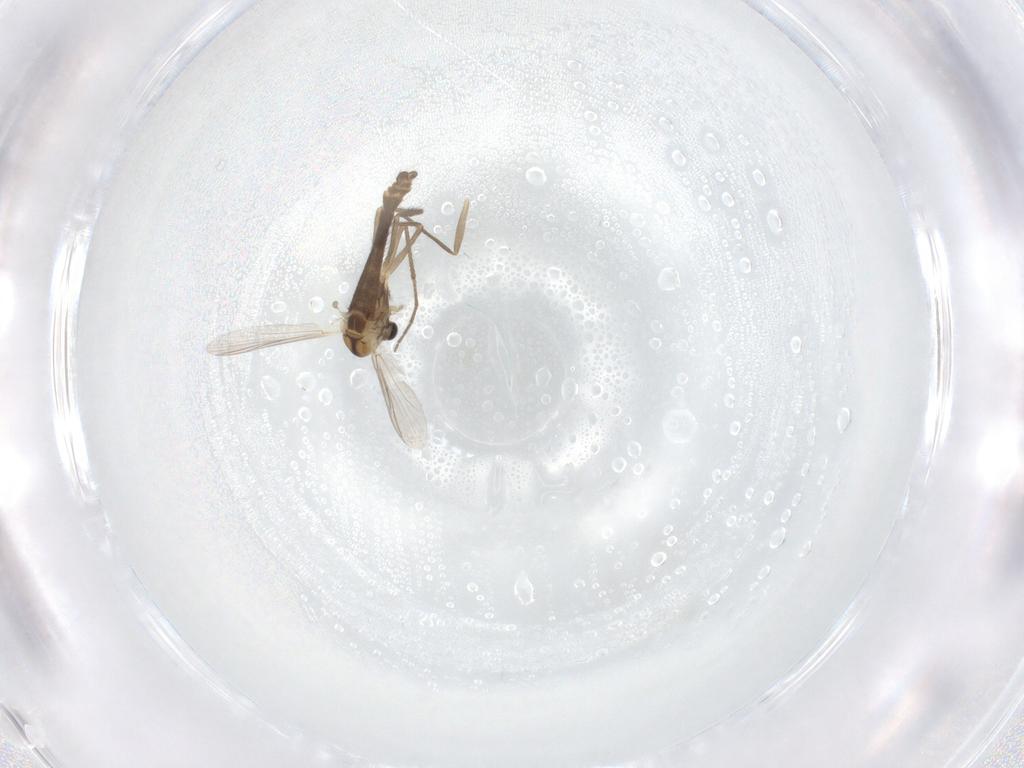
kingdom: Animalia
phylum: Arthropoda
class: Insecta
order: Diptera
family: Chironomidae
